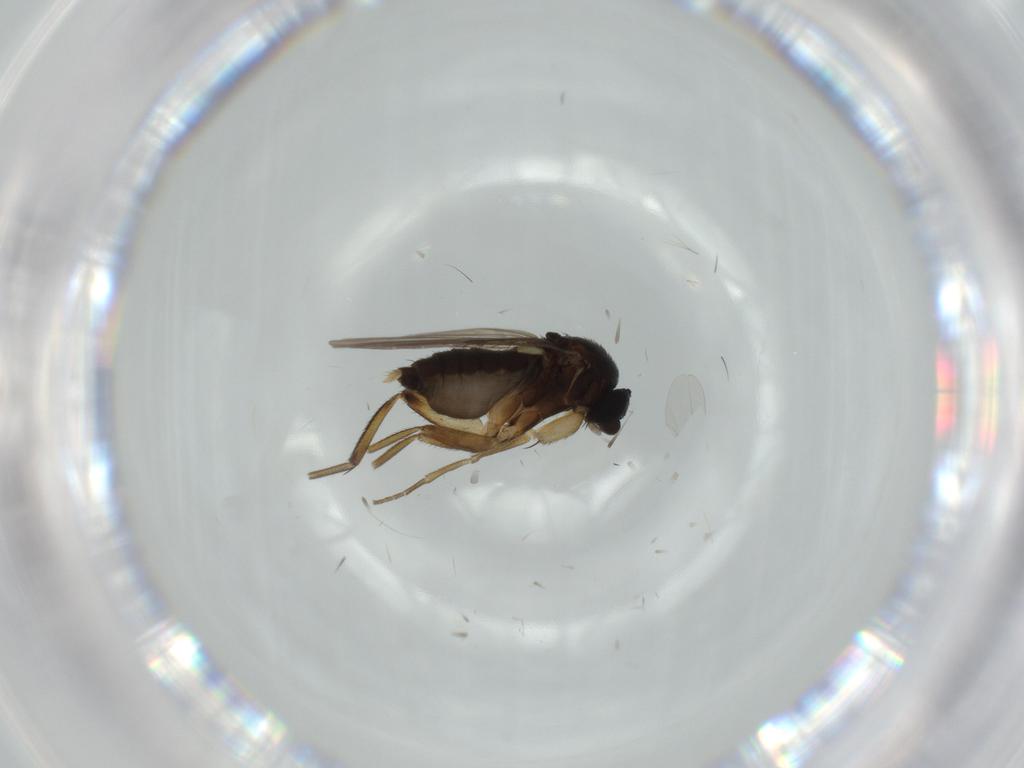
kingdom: Animalia
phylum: Arthropoda
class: Insecta
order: Diptera
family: Phoridae
